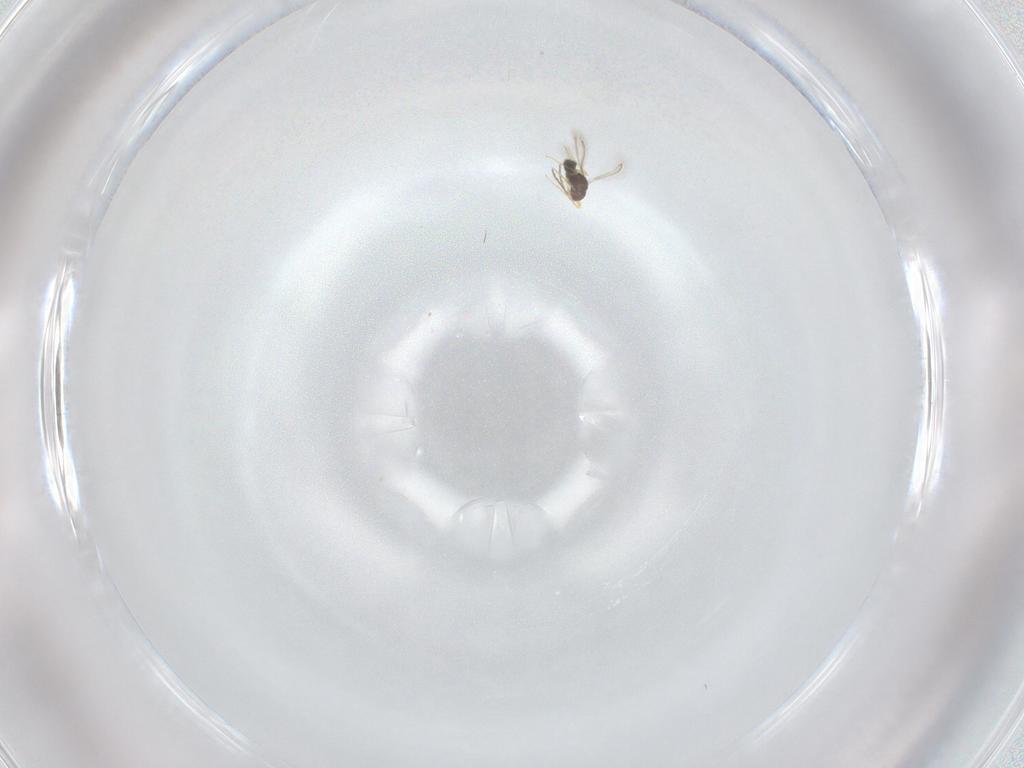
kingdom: Animalia
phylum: Arthropoda
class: Insecta
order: Hymenoptera
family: Mymaridae
